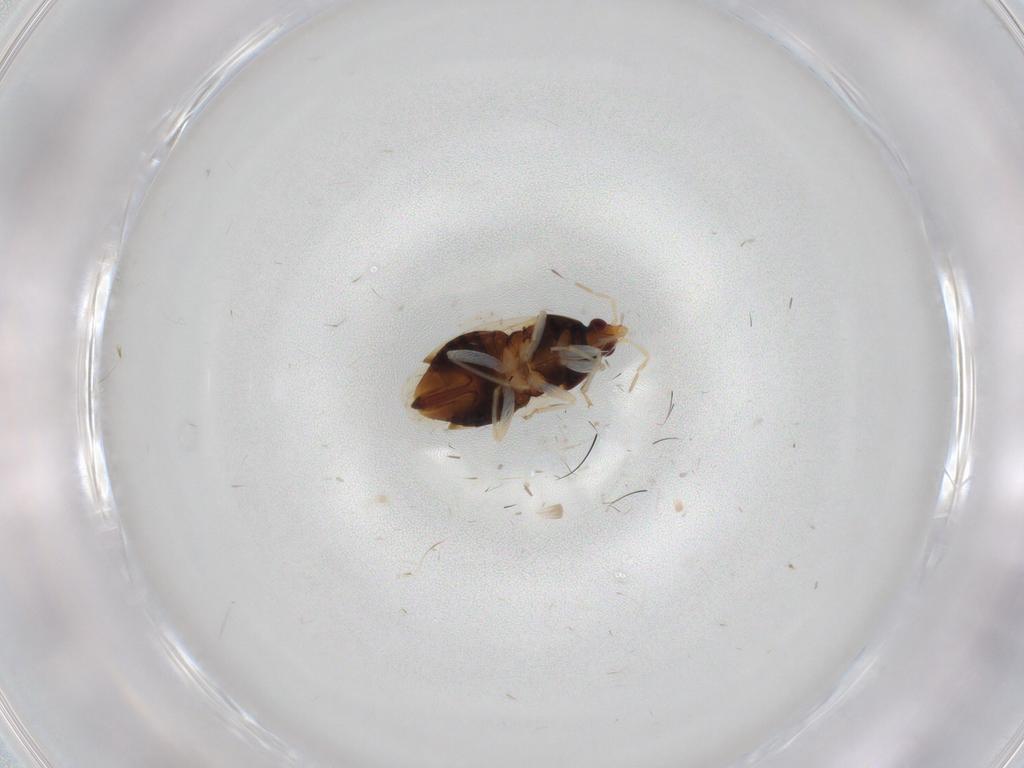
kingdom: Animalia
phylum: Arthropoda
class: Insecta
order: Hemiptera
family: Anthocoridae
